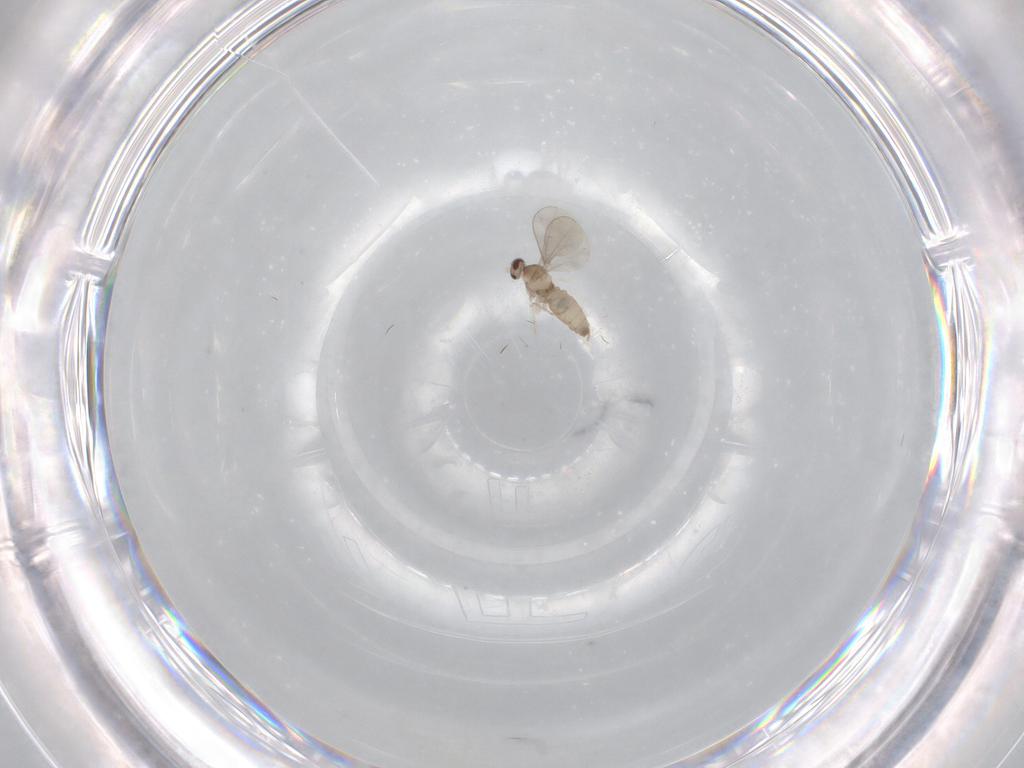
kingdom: Animalia
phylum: Arthropoda
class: Insecta
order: Diptera
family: Cecidomyiidae
